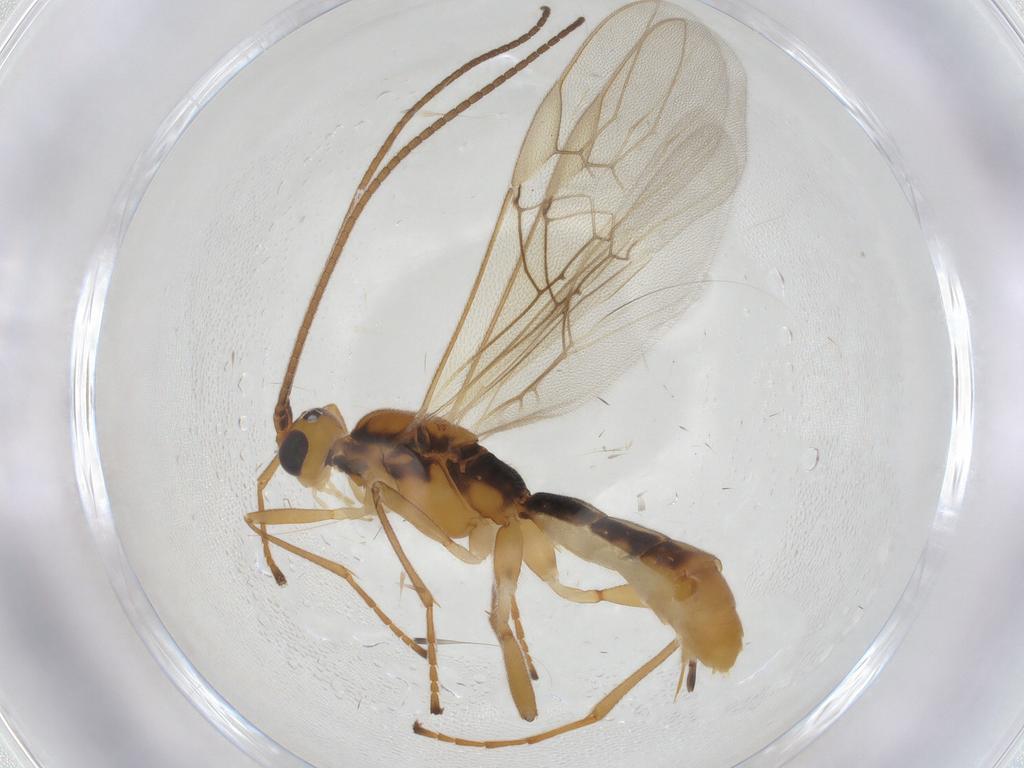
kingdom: Animalia
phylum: Arthropoda
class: Insecta
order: Hymenoptera
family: Braconidae
